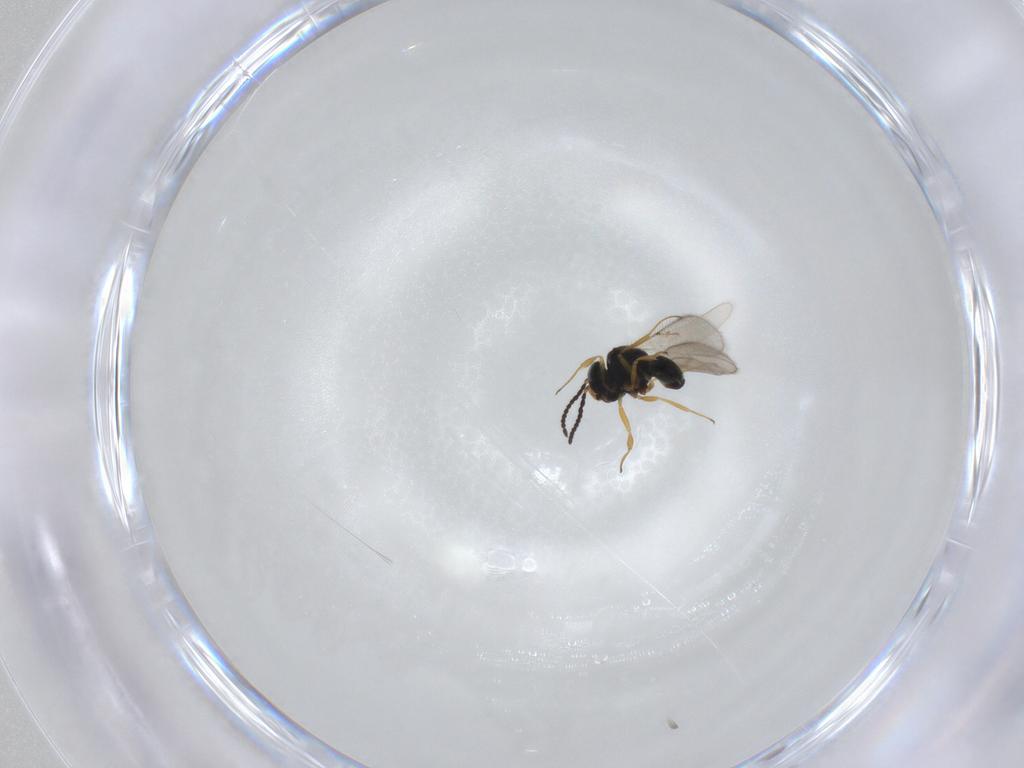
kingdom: Animalia
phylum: Arthropoda
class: Insecta
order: Hymenoptera
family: Scelionidae
